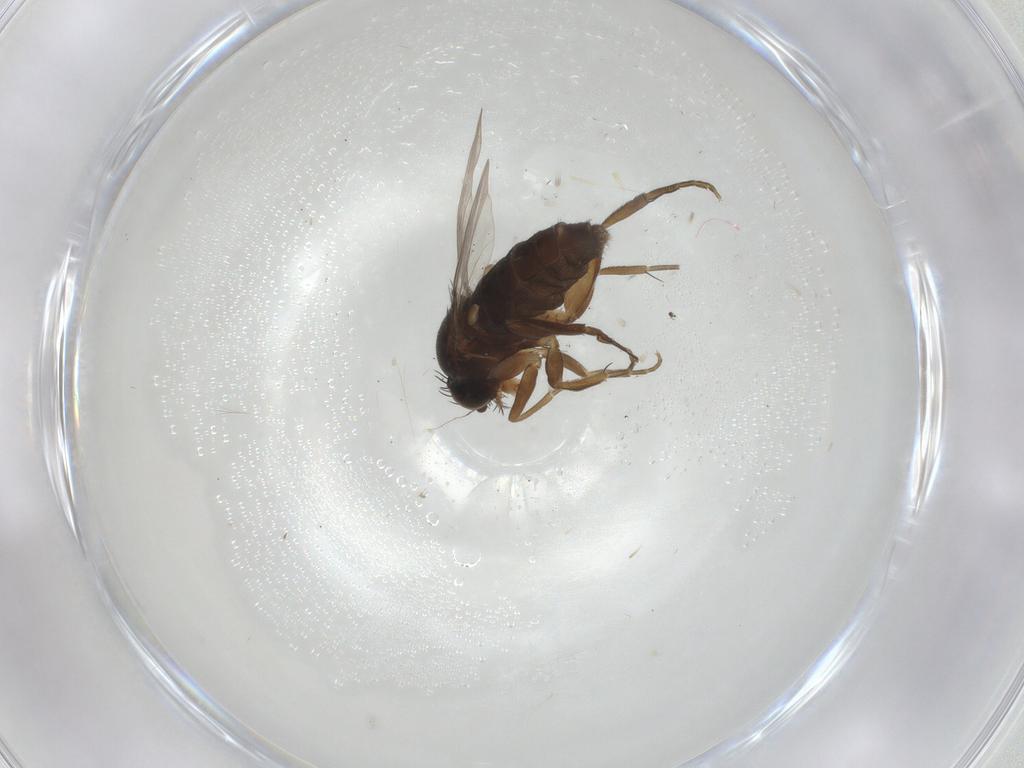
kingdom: Animalia
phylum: Arthropoda
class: Insecta
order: Diptera
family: Phoridae
